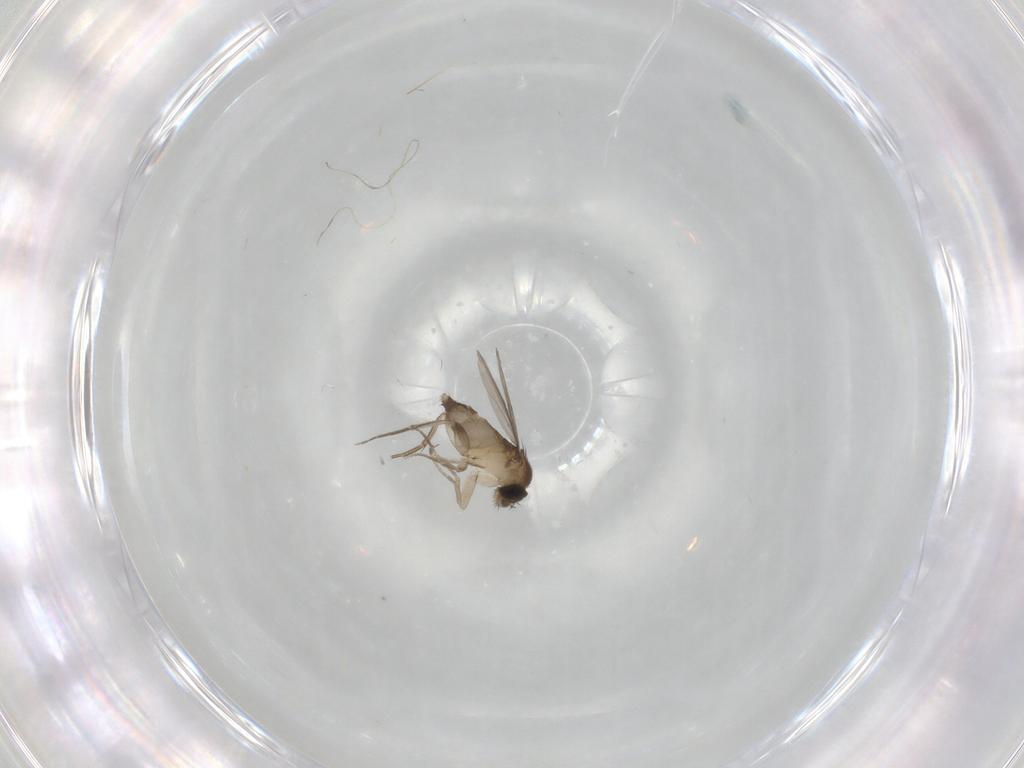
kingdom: Animalia
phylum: Arthropoda
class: Insecta
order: Diptera
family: Phoridae
